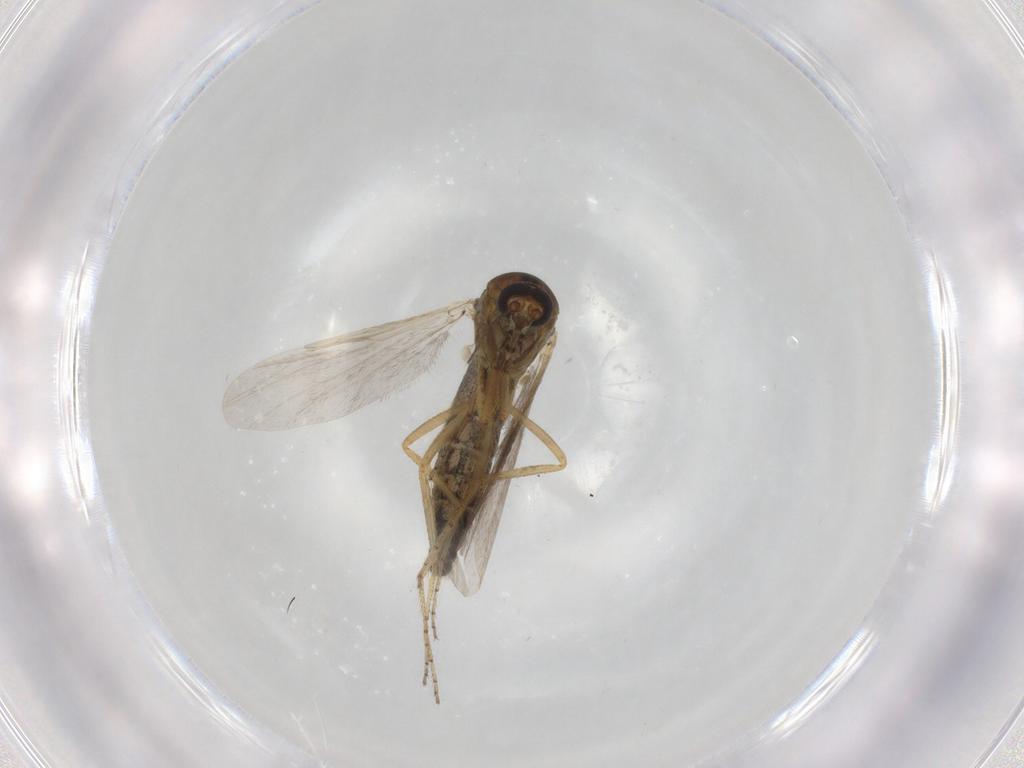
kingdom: Animalia
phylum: Arthropoda
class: Insecta
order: Diptera
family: Ceratopogonidae
